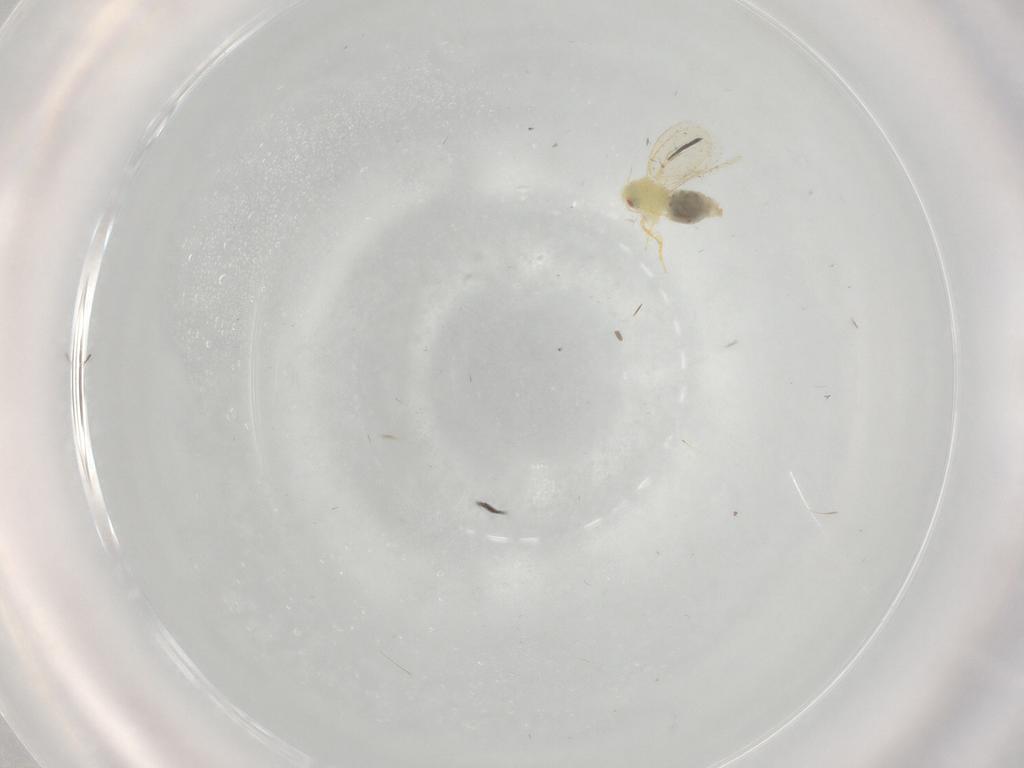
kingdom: Animalia
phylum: Arthropoda
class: Insecta
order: Hemiptera
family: Aleyrodidae
